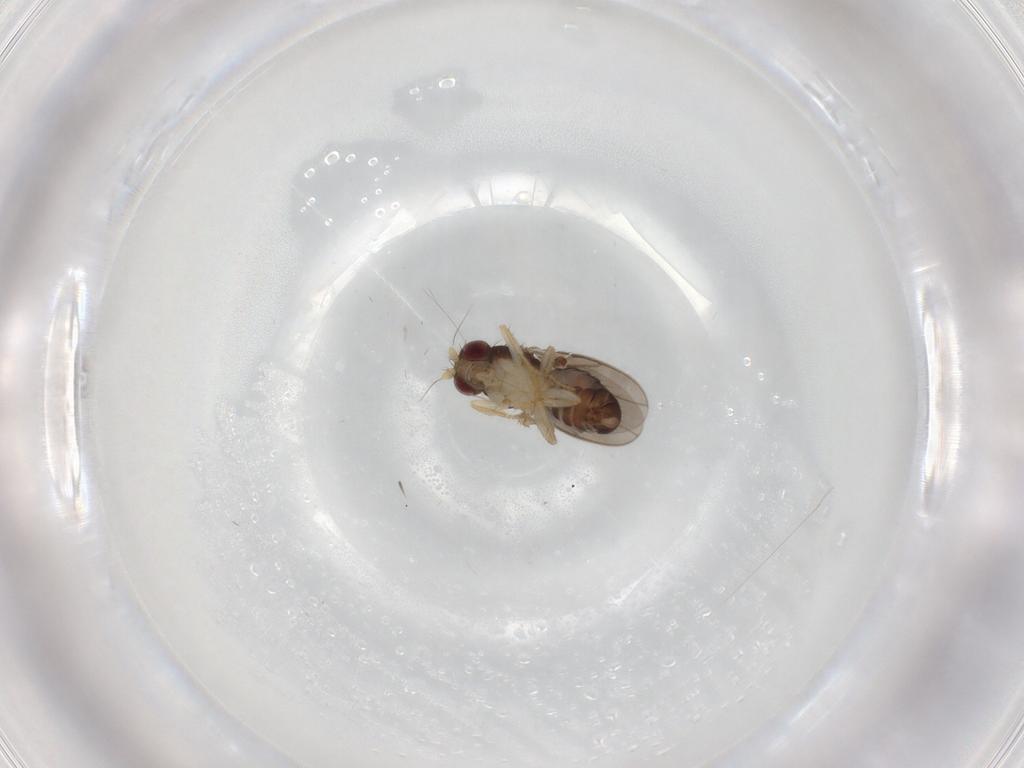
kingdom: Animalia
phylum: Arthropoda
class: Insecta
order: Diptera
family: Sphaeroceridae
